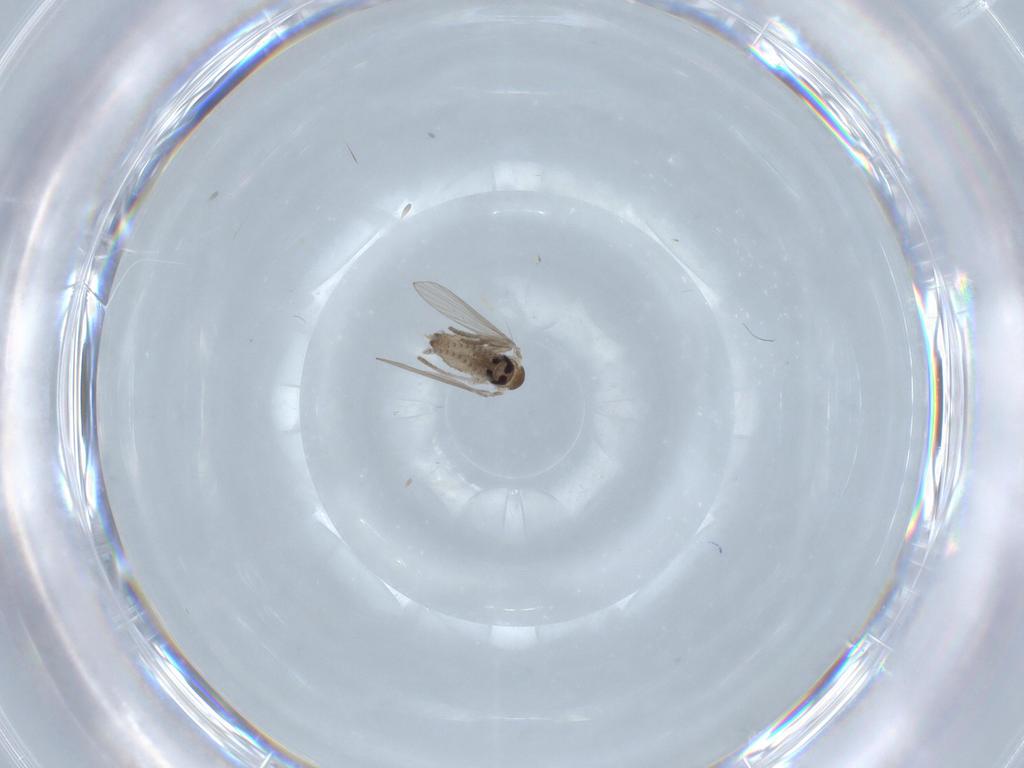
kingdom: Animalia
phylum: Arthropoda
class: Insecta
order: Diptera
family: Psychodidae
